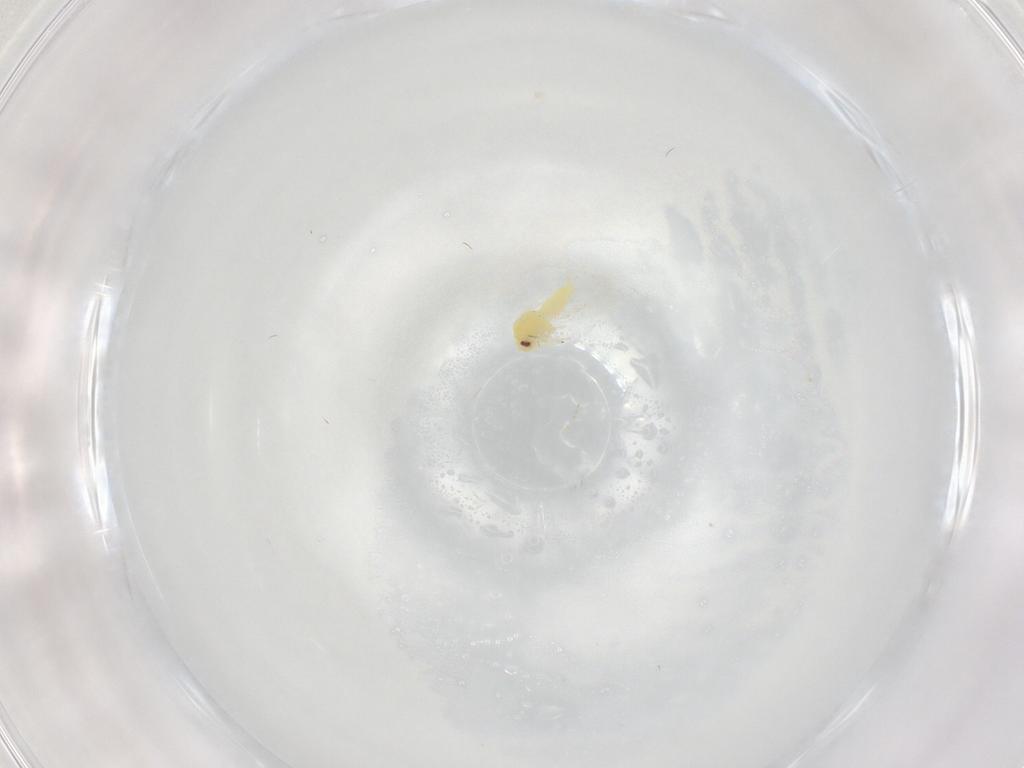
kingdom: Animalia
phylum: Arthropoda
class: Insecta
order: Hemiptera
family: Aleyrodidae
